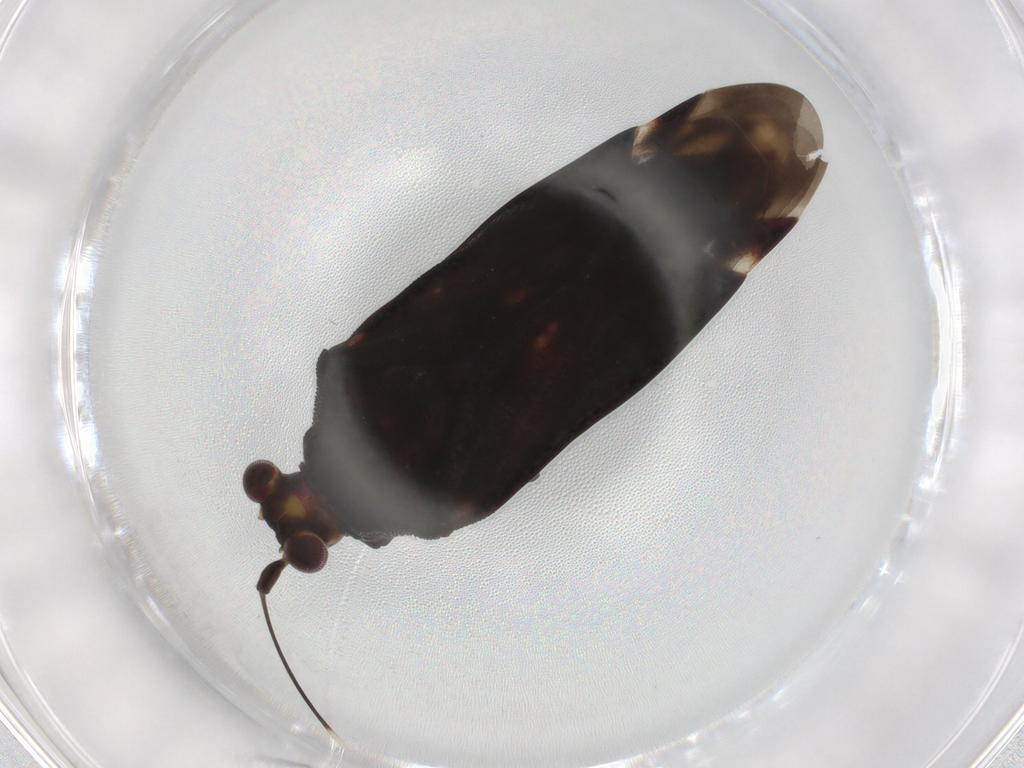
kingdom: Animalia
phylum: Arthropoda
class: Insecta
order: Hemiptera
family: Miridae
